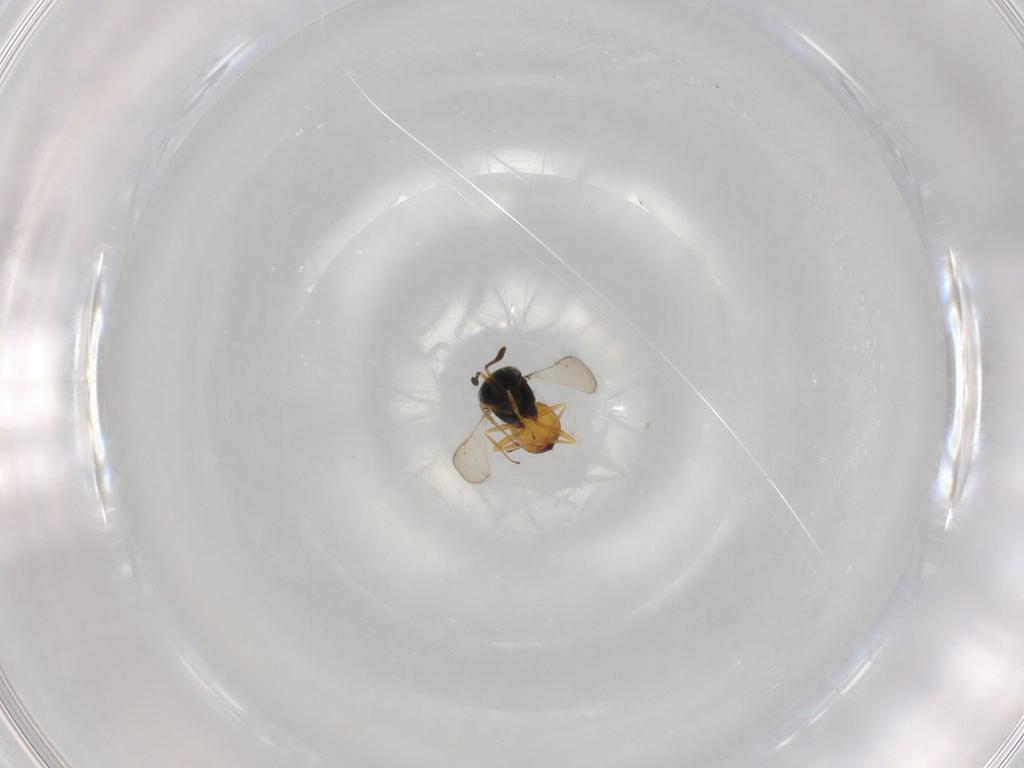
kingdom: Animalia
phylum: Arthropoda
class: Insecta
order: Hymenoptera
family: Scelionidae
